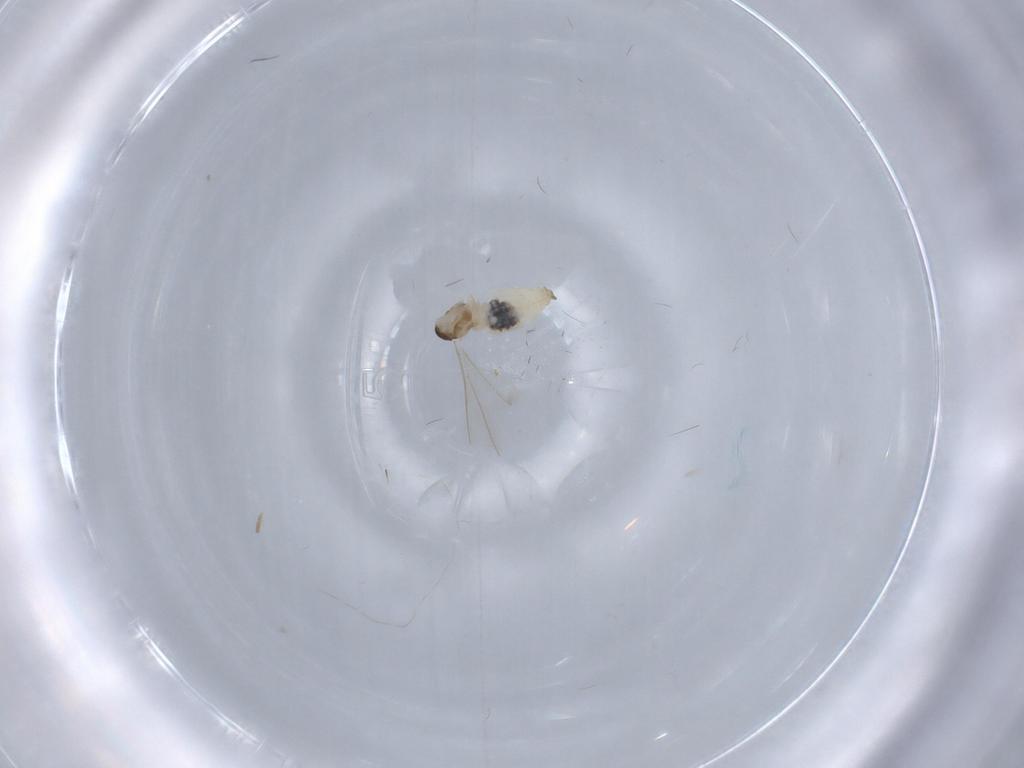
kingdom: Animalia
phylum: Arthropoda
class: Insecta
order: Diptera
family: Cecidomyiidae
